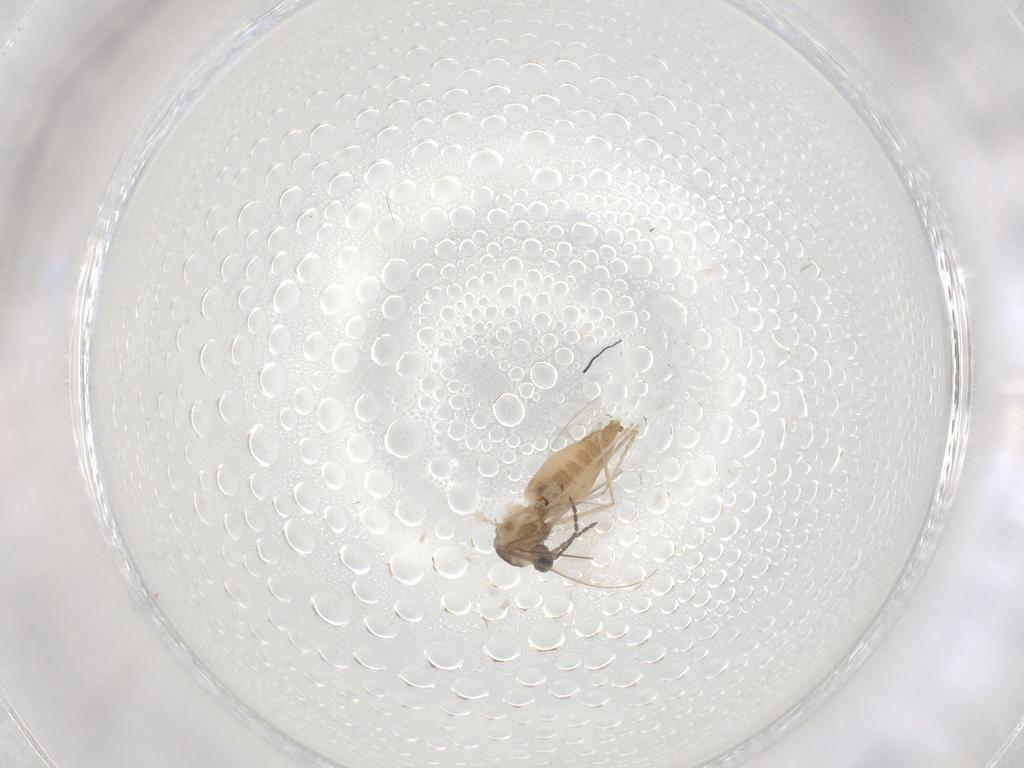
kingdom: Animalia
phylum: Arthropoda
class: Insecta
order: Diptera
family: Cecidomyiidae
